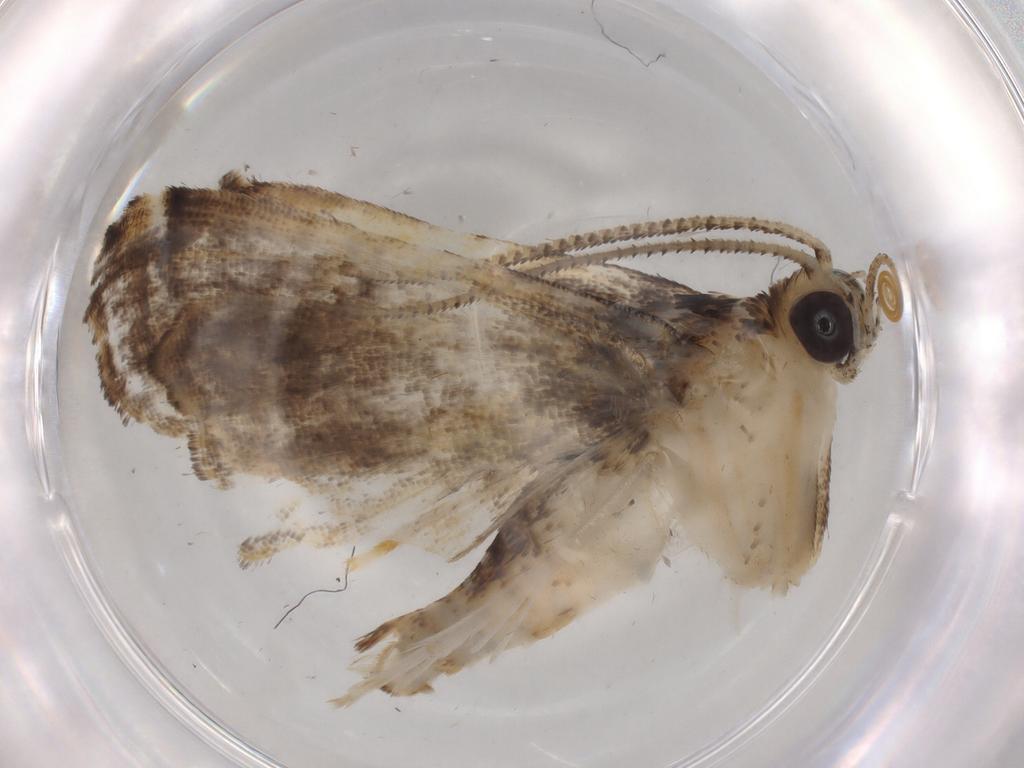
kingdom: Animalia
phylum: Arthropoda
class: Insecta
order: Lepidoptera
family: Crambidae
